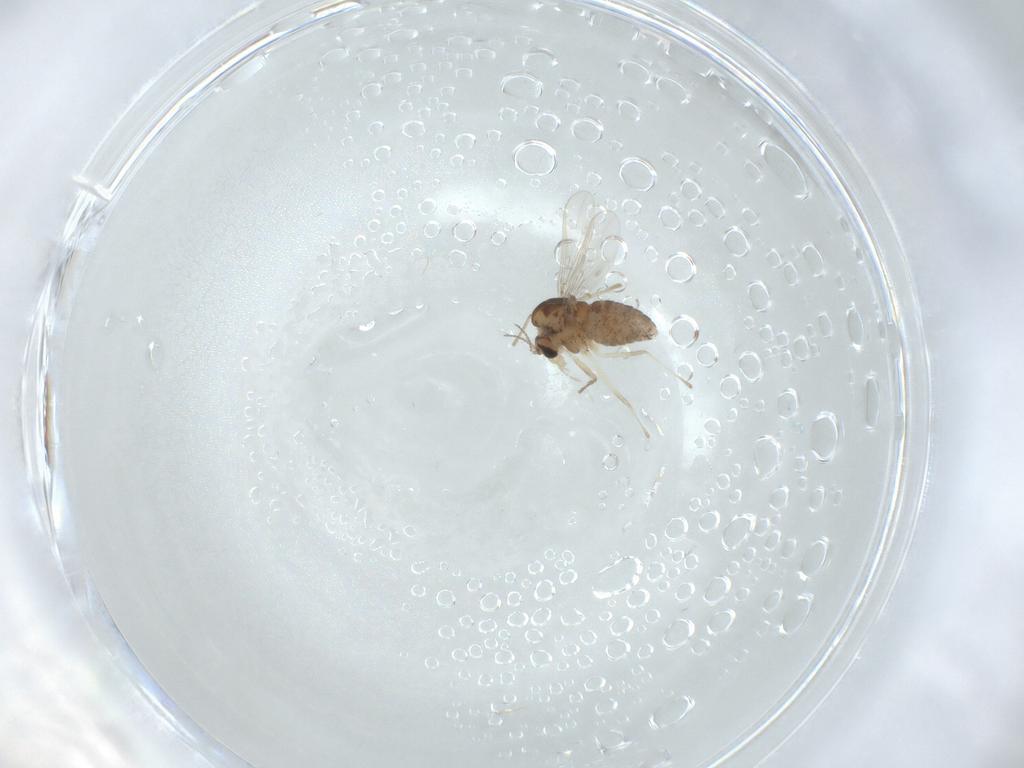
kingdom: Animalia
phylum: Arthropoda
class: Insecta
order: Diptera
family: Chironomidae
